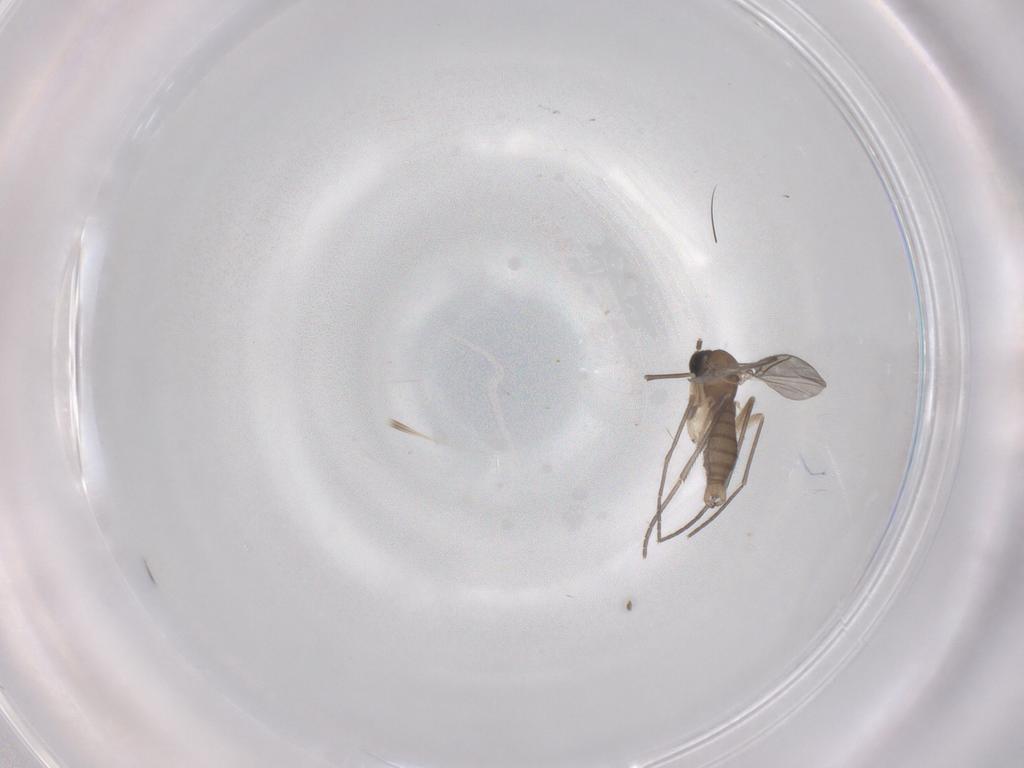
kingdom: Animalia
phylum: Arthropoda
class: Insecta
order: Diptera
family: Sciaridae
